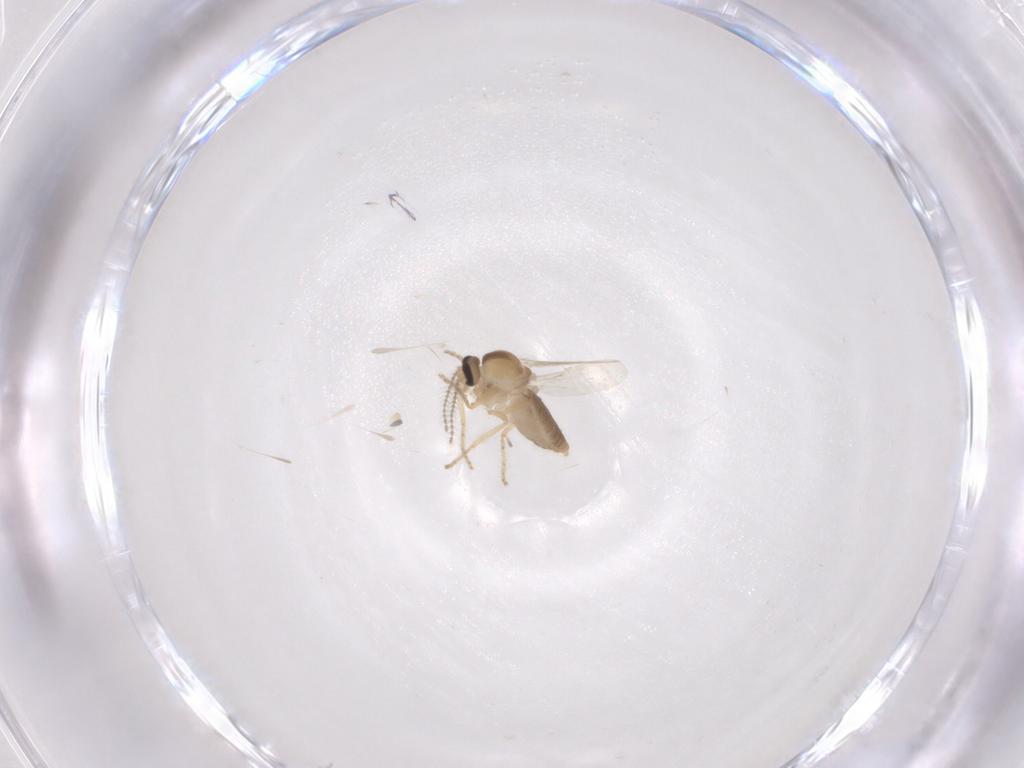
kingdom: Animalia
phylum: Arthropoda
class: Insecta
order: Diptera
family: Ceratopogonidae
